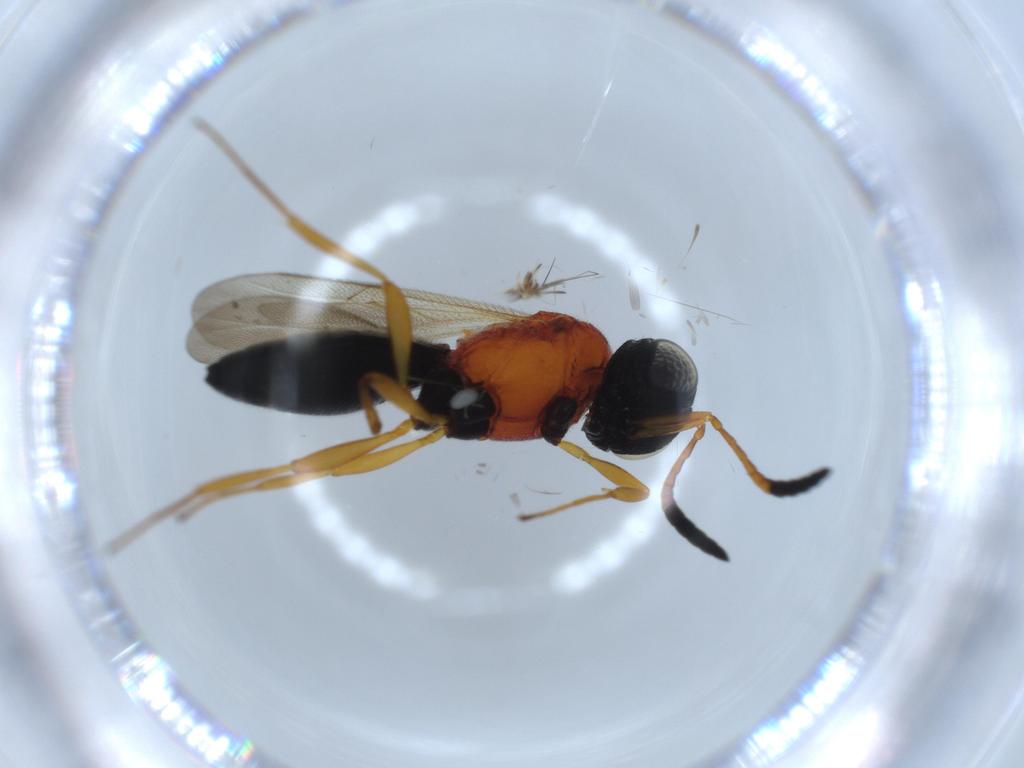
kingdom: Animalia
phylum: Arthropoda
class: Insecta
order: Hymenoptera
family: Scelionidae
